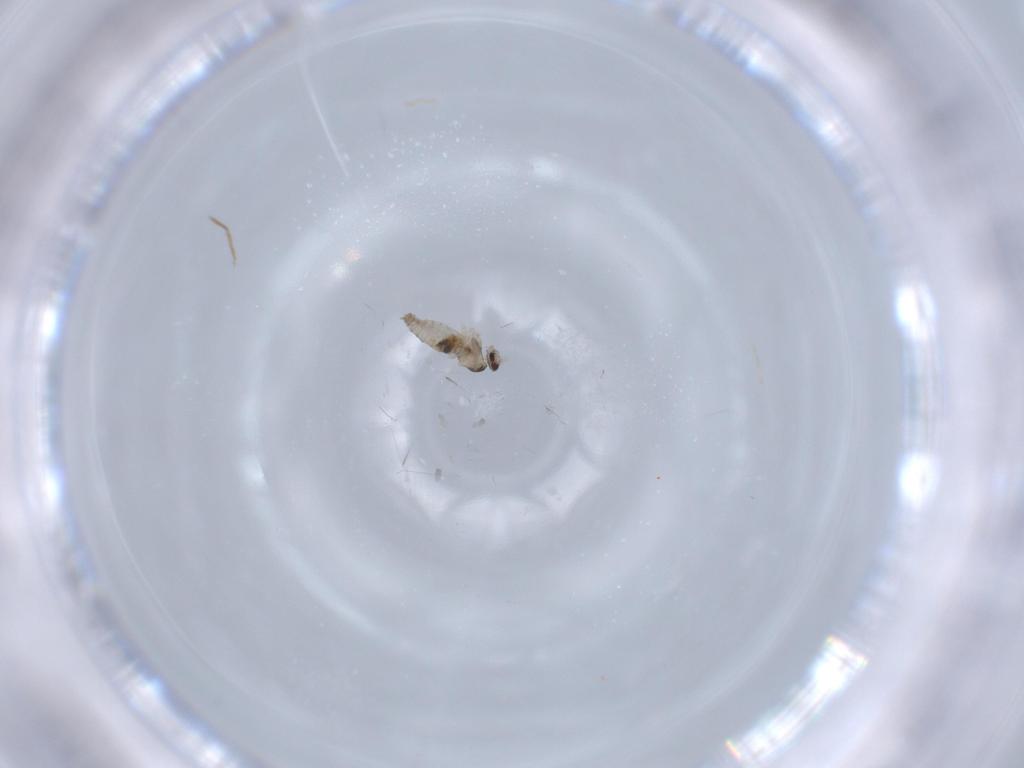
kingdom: Animalia
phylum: Arthropoda
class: Insecta
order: Diptera
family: Cecidomyiidae
